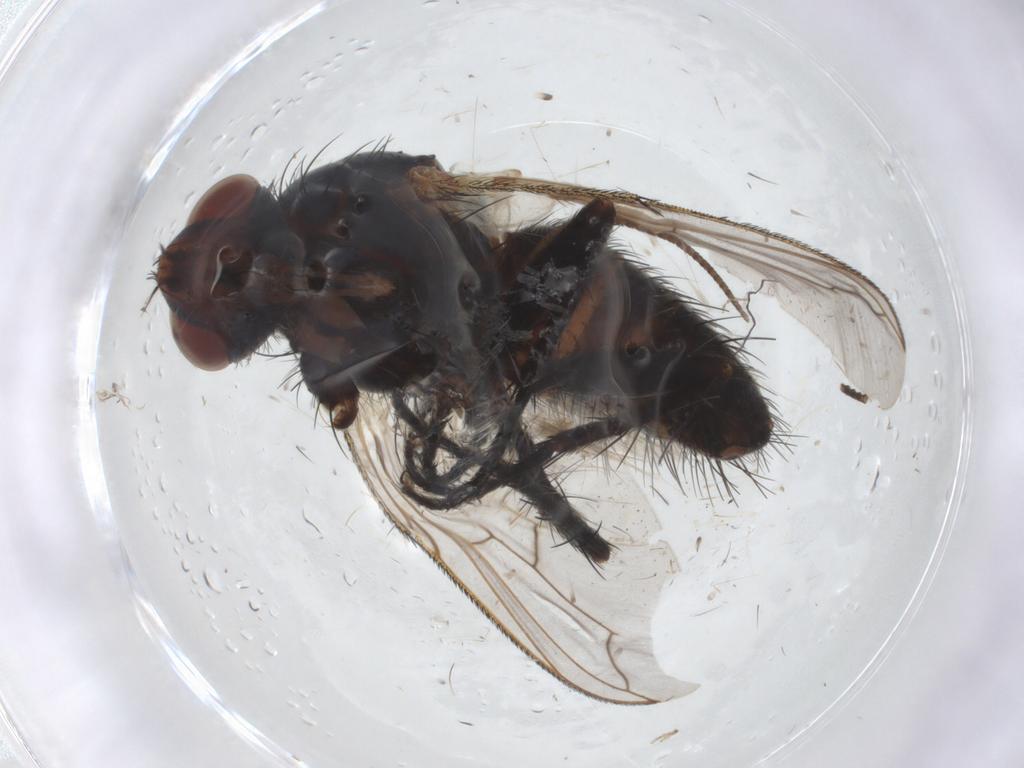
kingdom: Animalia
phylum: Arthropoda
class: Insecta
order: Diptera
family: Tachinidae
